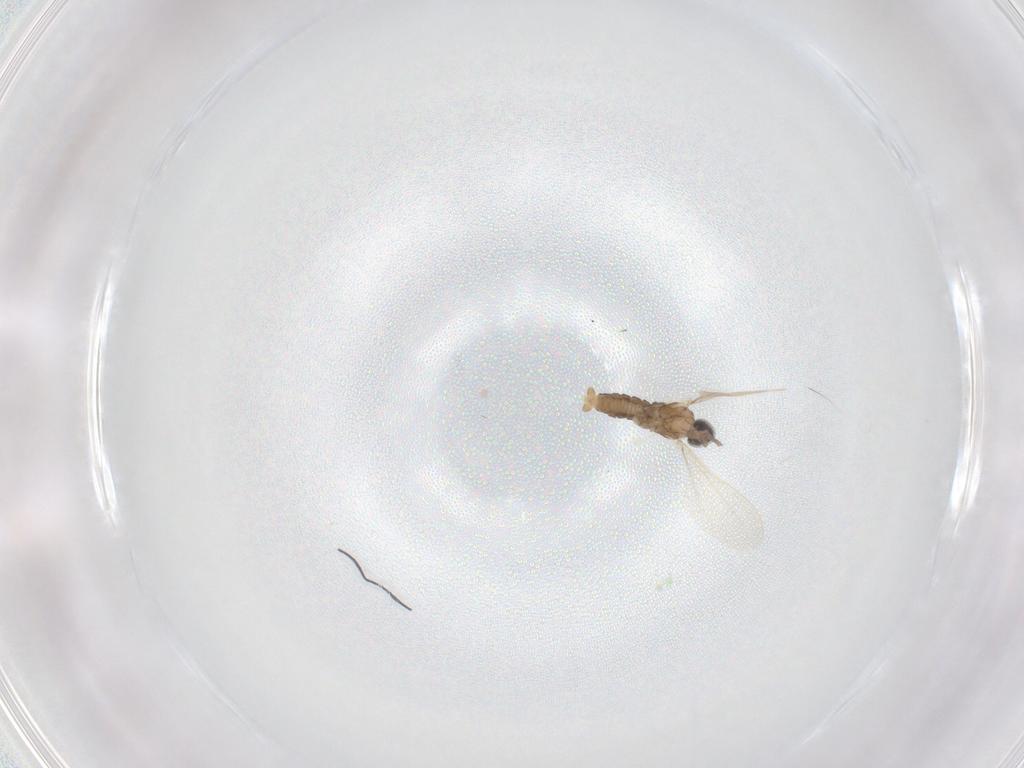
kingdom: Animalia
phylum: Arthropoda
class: Insecta
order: Diptera
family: Cecidomyiidae
